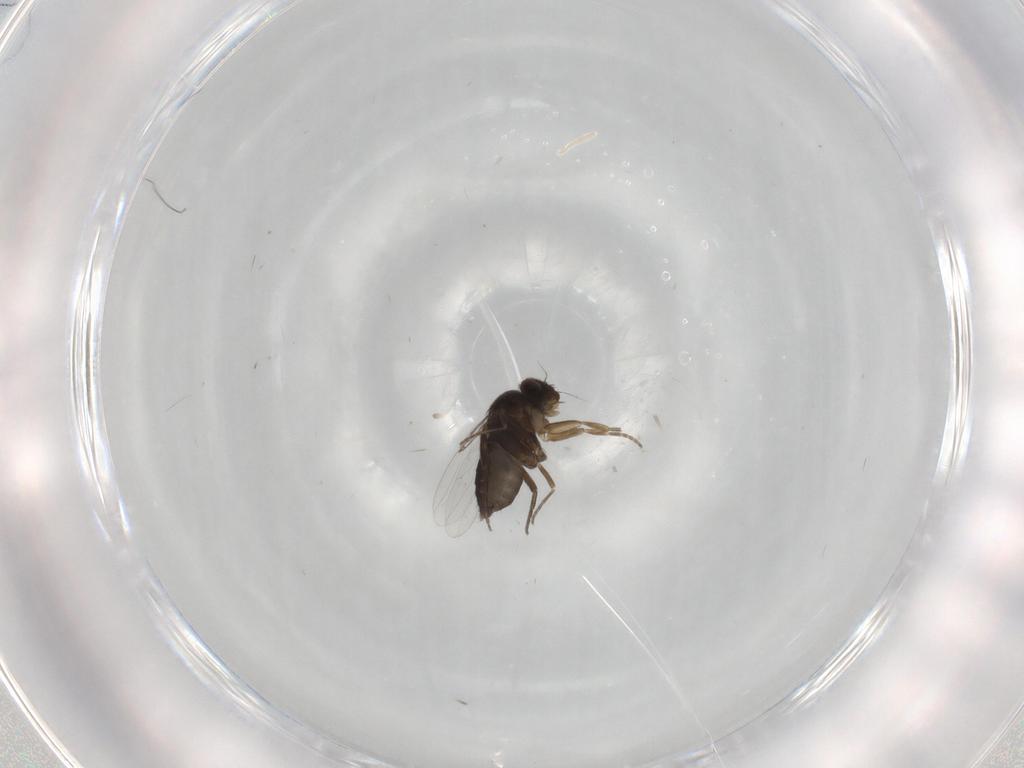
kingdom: Animalia
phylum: Arthropoda
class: Insecta
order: Diptera
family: Phoridae
